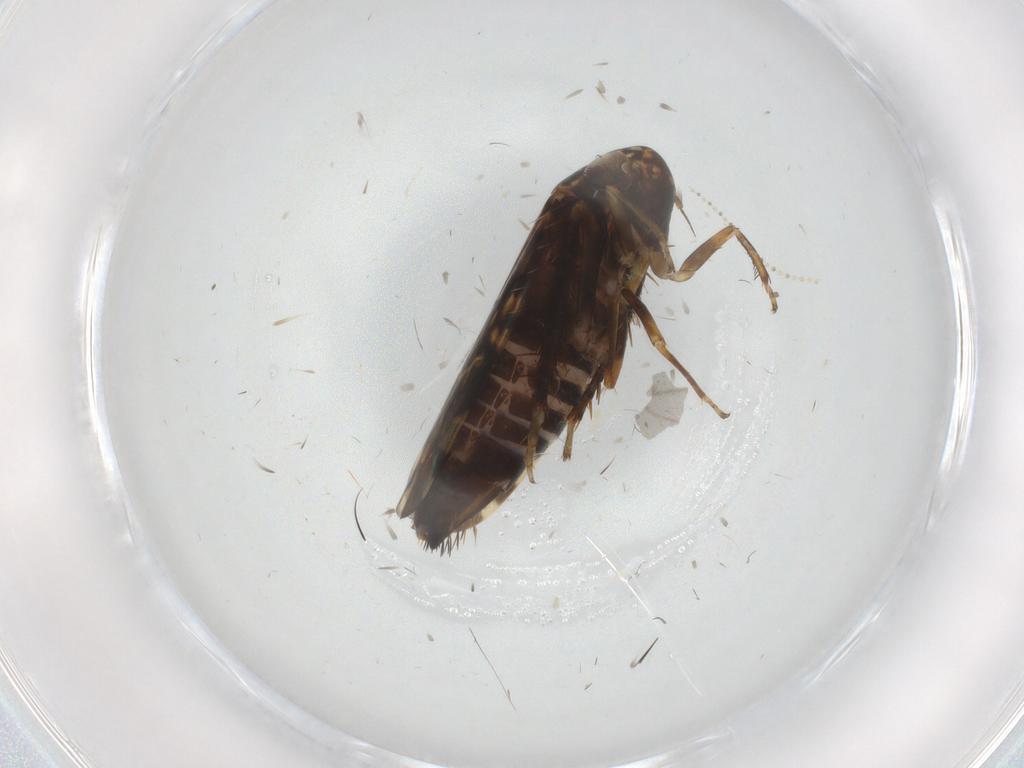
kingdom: Animalia
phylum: Arthropoda
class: Insecta
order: Hemiptera
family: Cicadellidae
